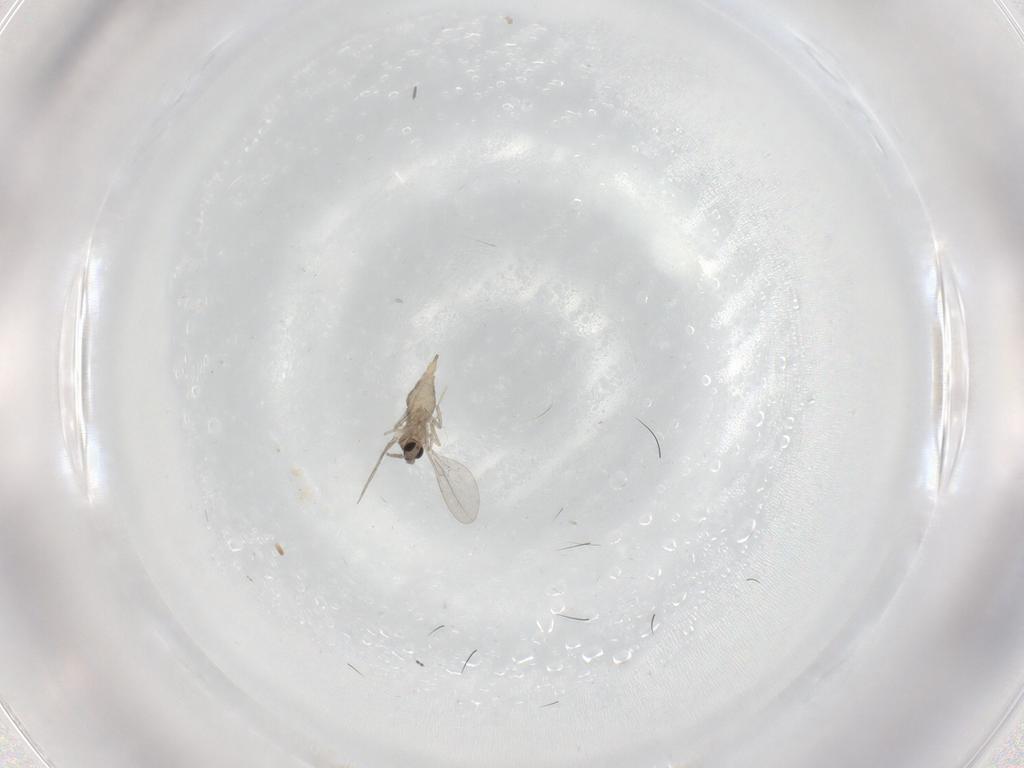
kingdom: Animalia
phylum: Arthropoda
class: Insecta
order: Diptera
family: Cecidomyiidae
